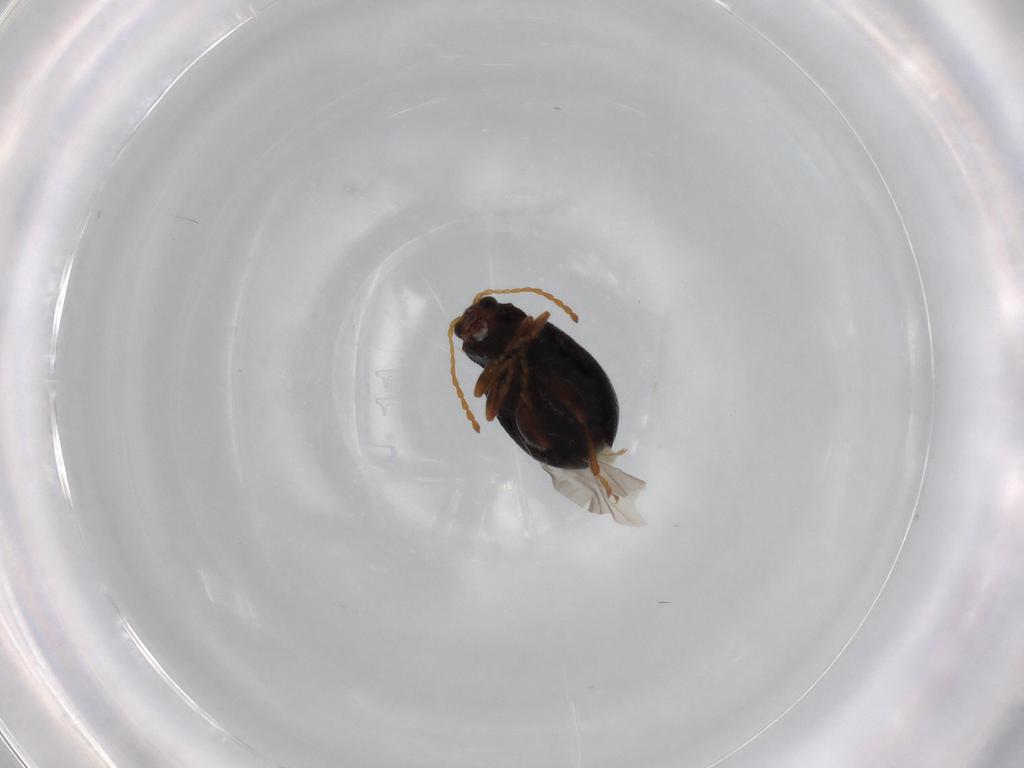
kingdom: Animalia
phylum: Arthropoda
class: Insecta
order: Coleoptera
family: Chrysomelidae
